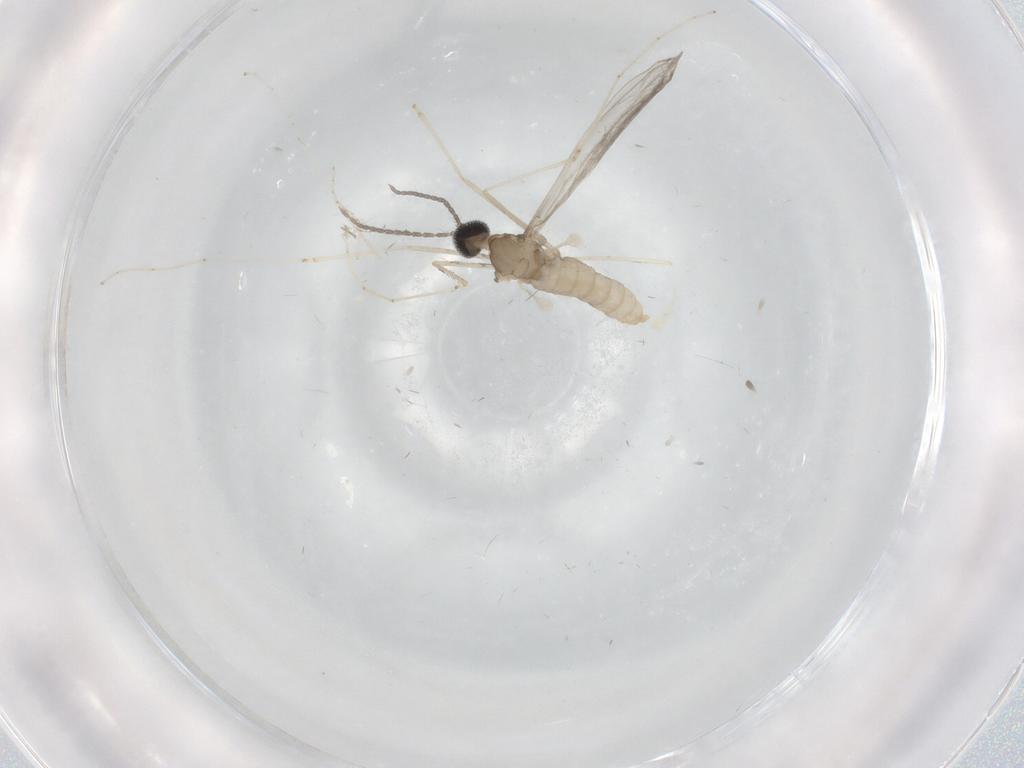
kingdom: Animalia
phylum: Arthropoda
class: Insecta
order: Diptera
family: Cecidomyiidae
